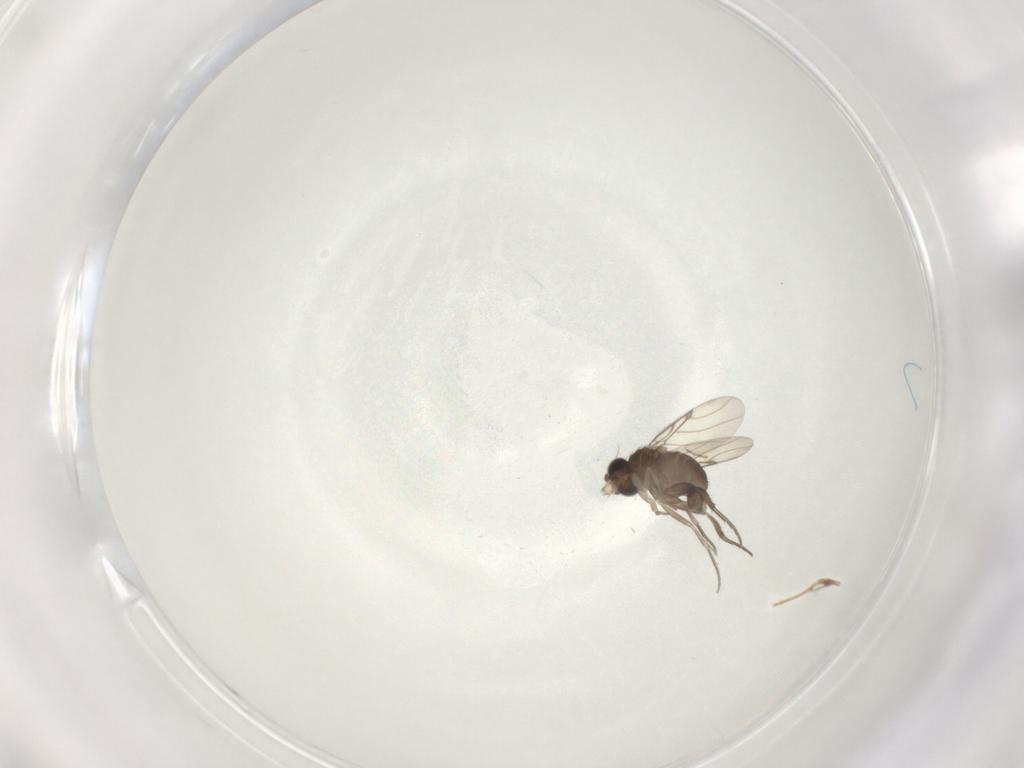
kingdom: Animalia
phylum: Arthropoda
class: Insecta
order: Diptera
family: Phoridae
